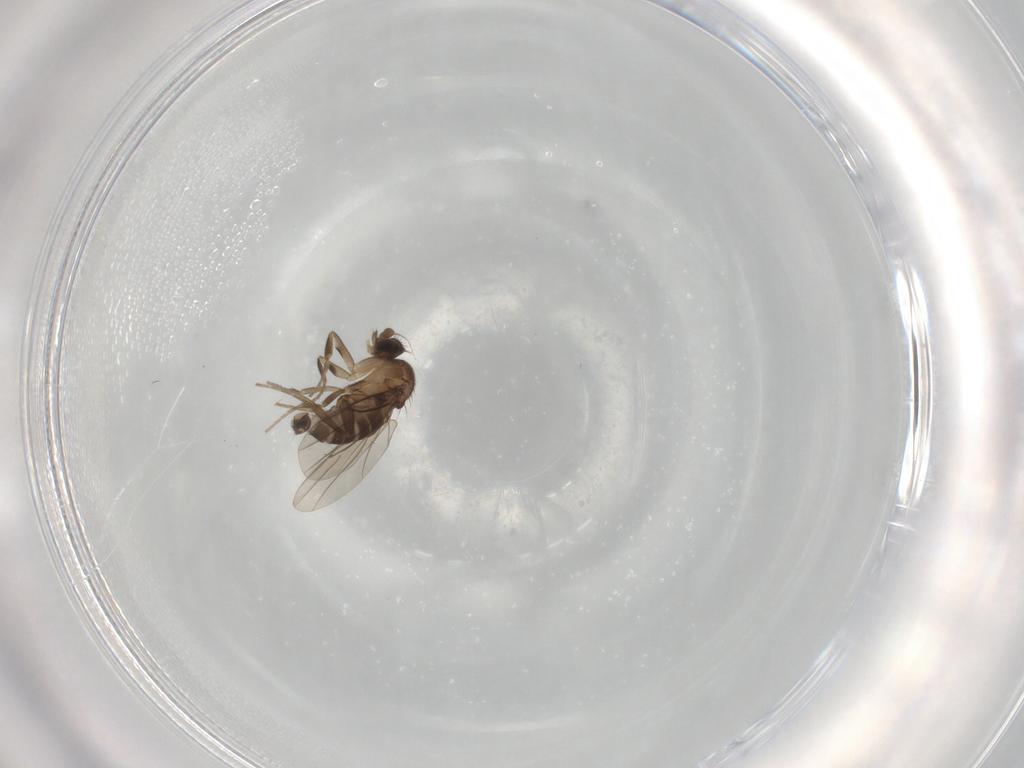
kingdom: Animalia
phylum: Arthropoda
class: Insecta
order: Diptera
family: Phoridae
